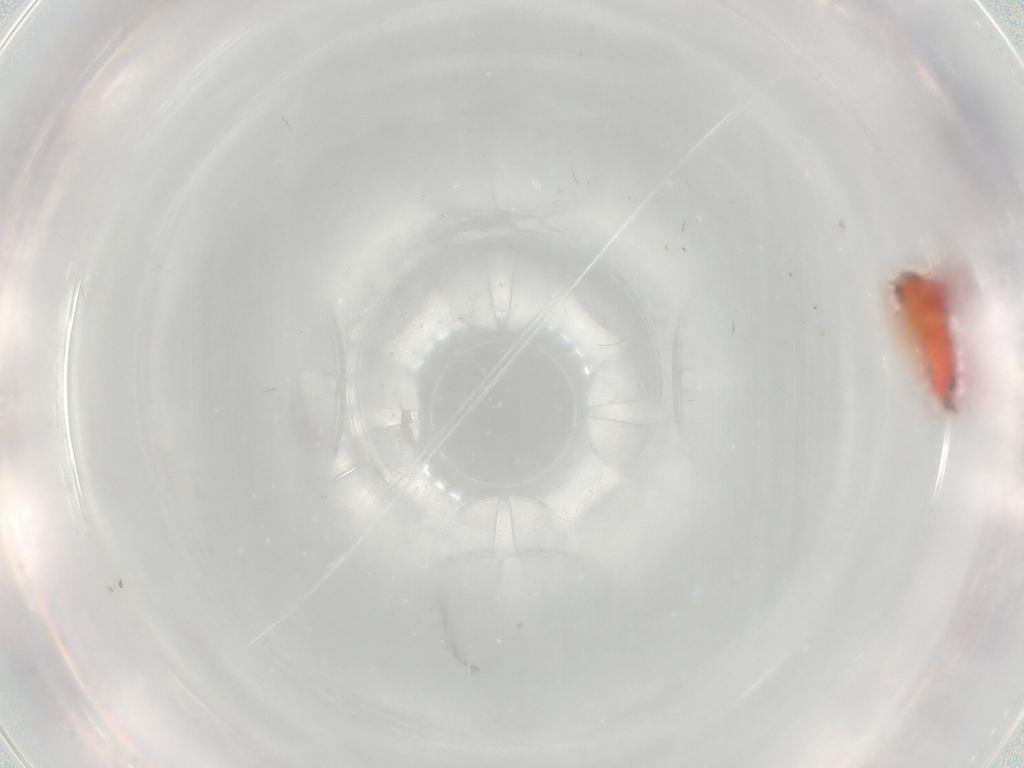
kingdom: Animalia
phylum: Arthropoda
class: Insecta
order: Hemiptera
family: Aleyrodidae
